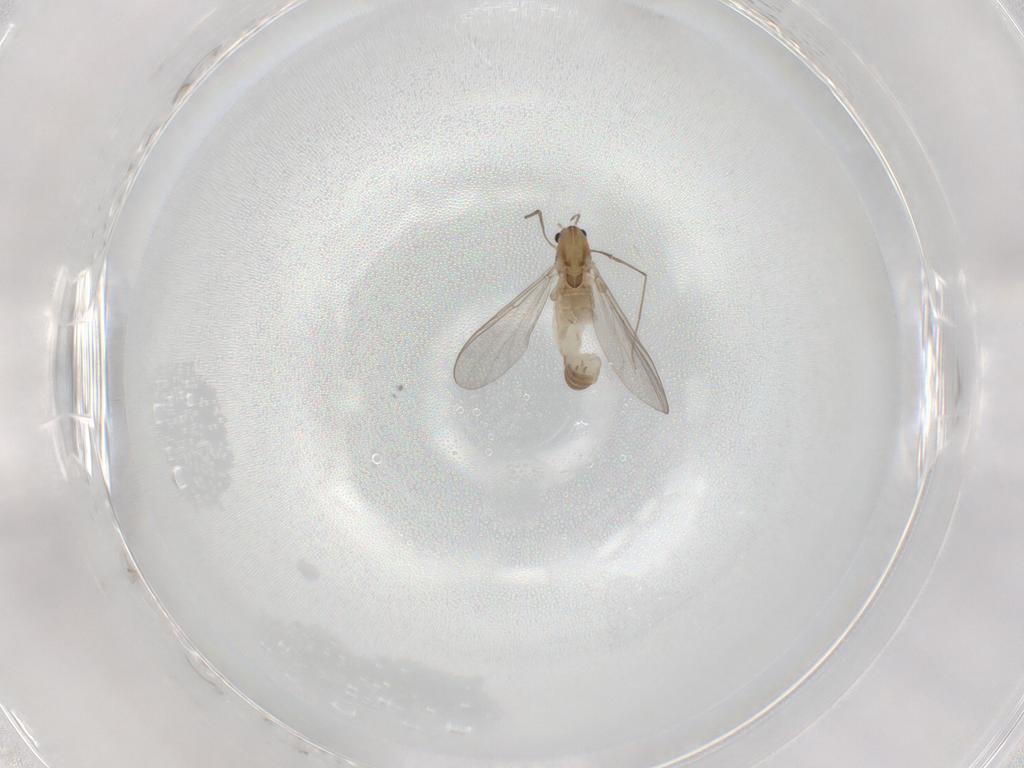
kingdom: Animalia
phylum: Arthropoda
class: Insecta
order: Diptera
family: Chironomidae
